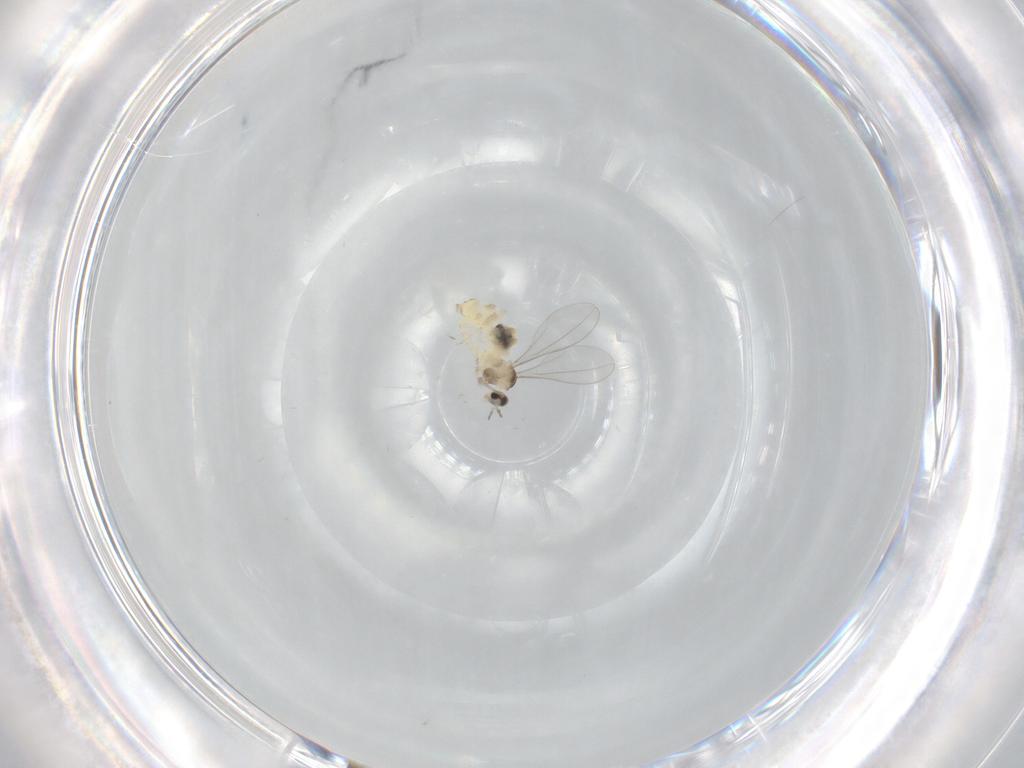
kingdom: Animalia
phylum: Arthropoda
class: Insecta
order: Diptera
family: Cecidomyiidae
